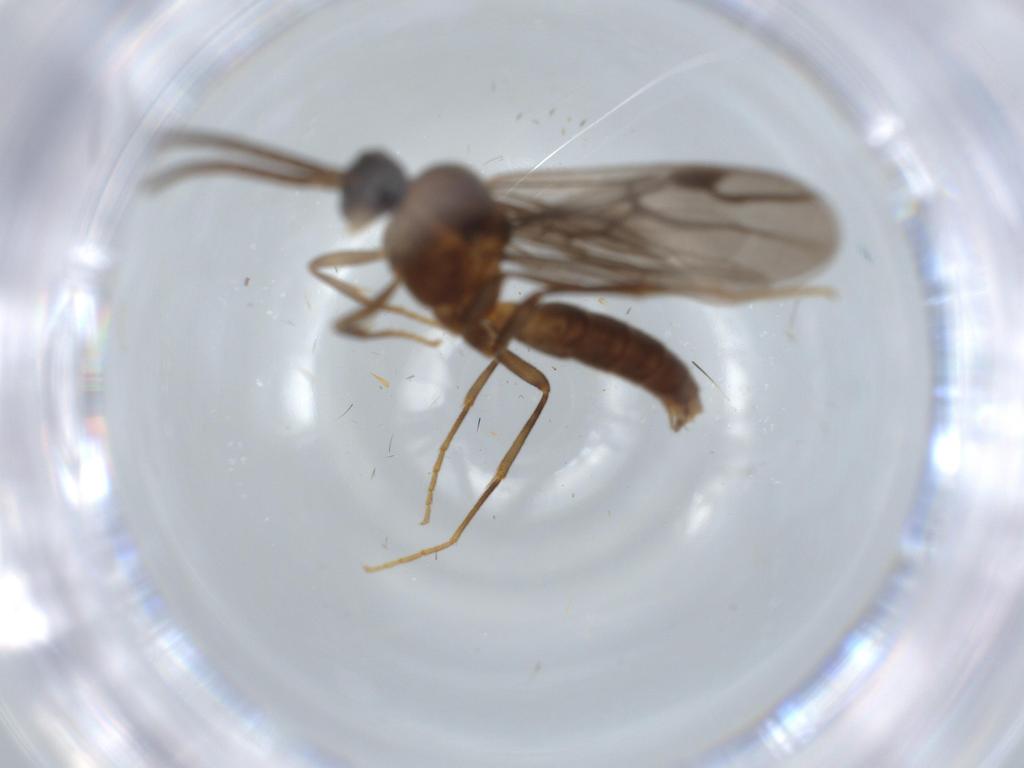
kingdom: Animalia
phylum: Arthropoda
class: Insecta
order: Hymenoptera
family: Formicidae
